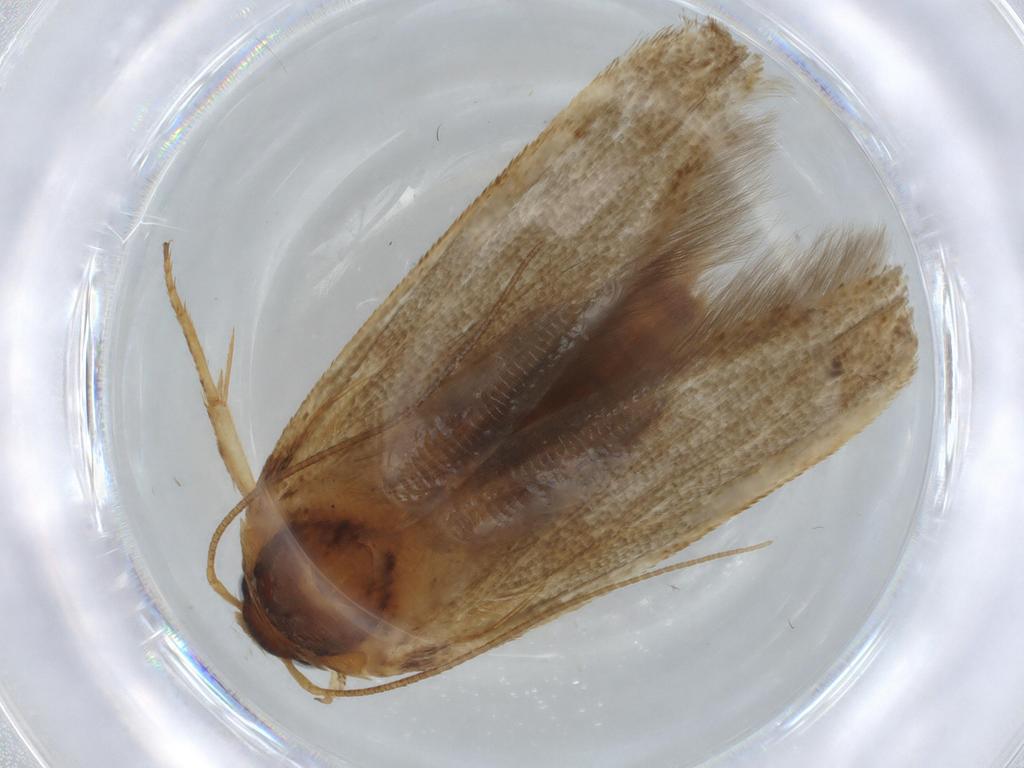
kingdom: Animalia
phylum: Arthropoda
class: Insecta
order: Lepidoptera
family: Blastobasidae
